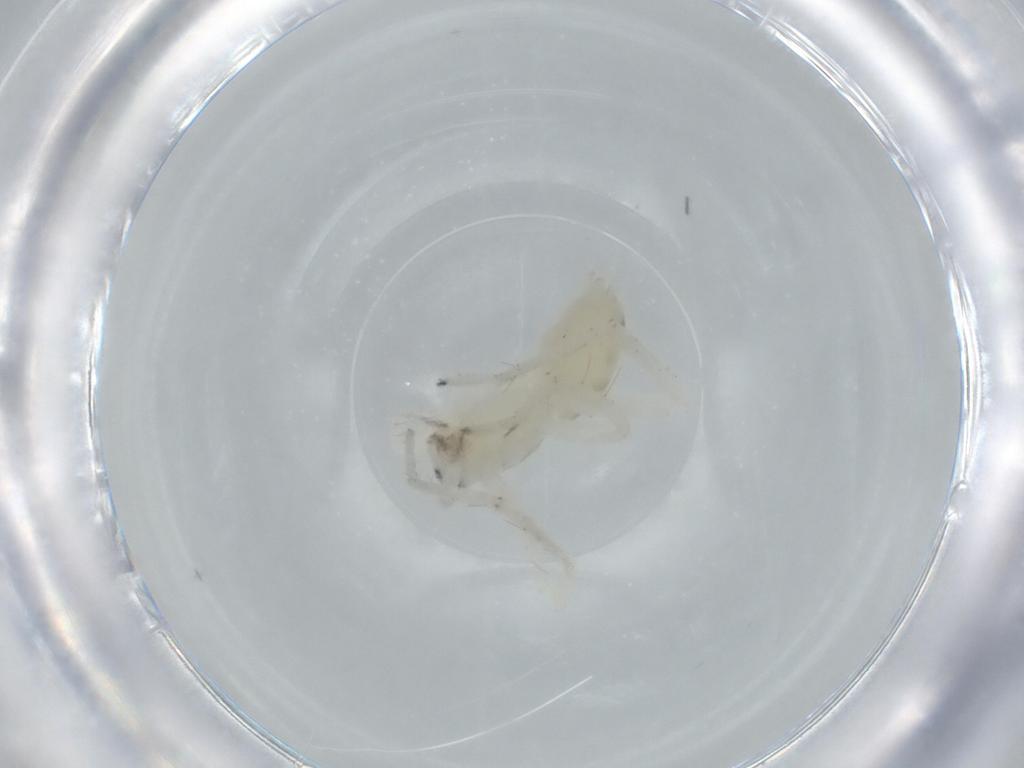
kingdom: Animalia
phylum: Arthropoda
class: Arachnida
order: Araneae
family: Anyphaenidae
